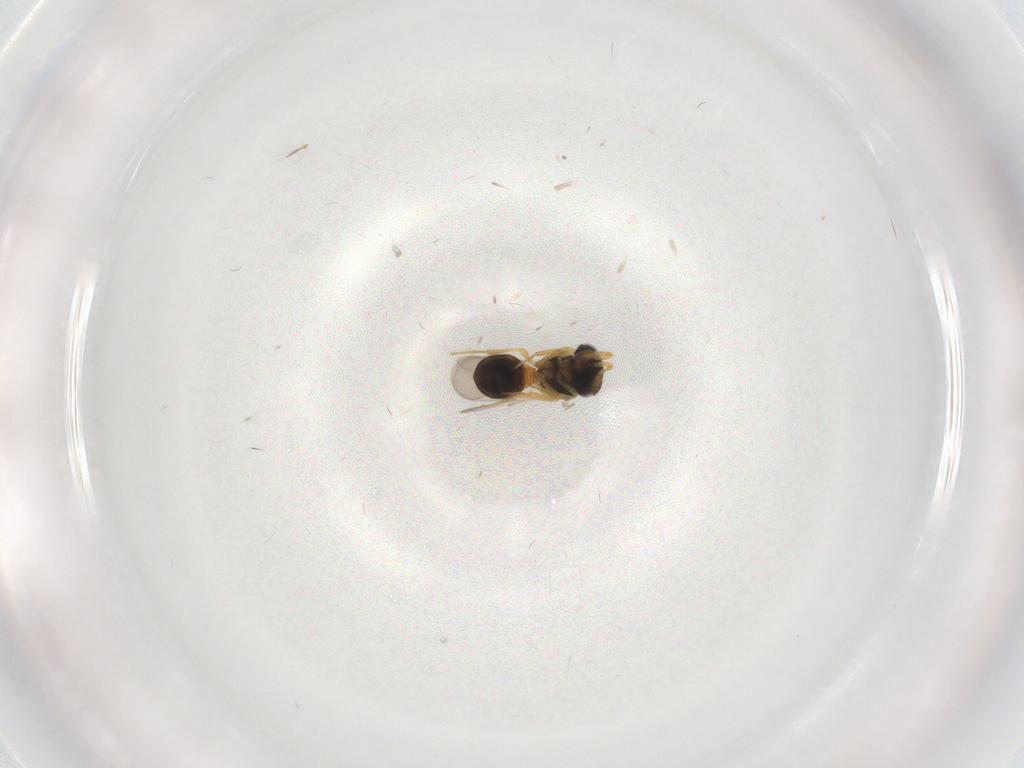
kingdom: Animalia
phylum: Arthropoda
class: Insecta
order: Hymenoptera
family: Scelionidae
